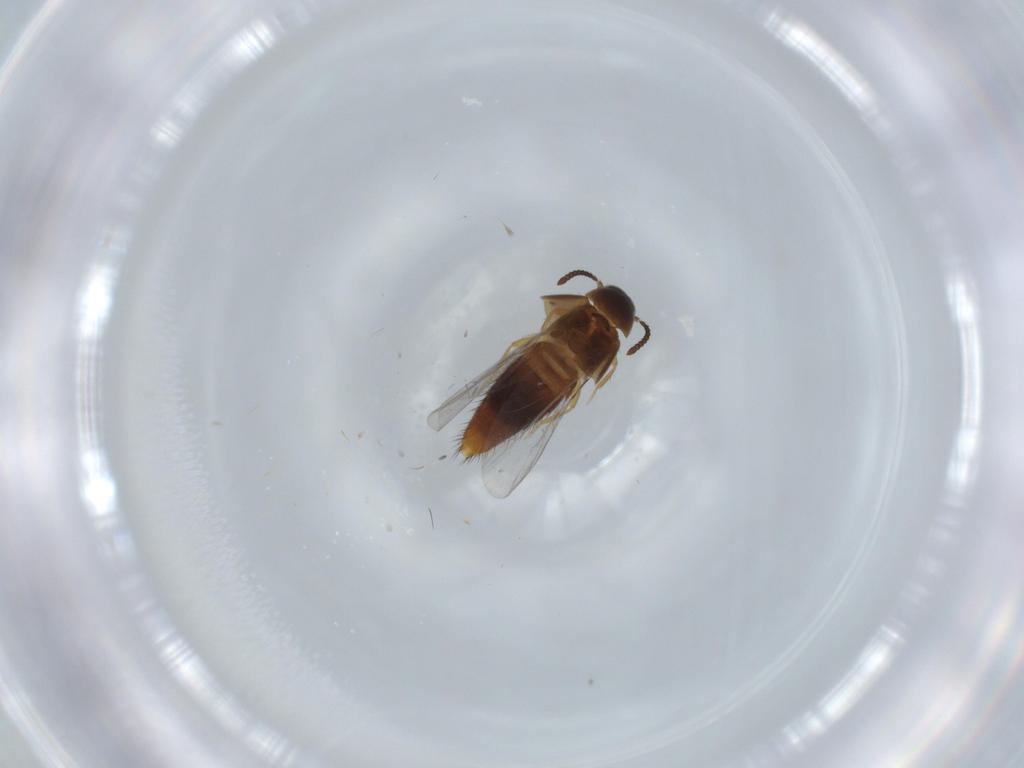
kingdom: Animalia
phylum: Arthropoda
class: Insecta
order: Coleoptera
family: Staphylinidae
